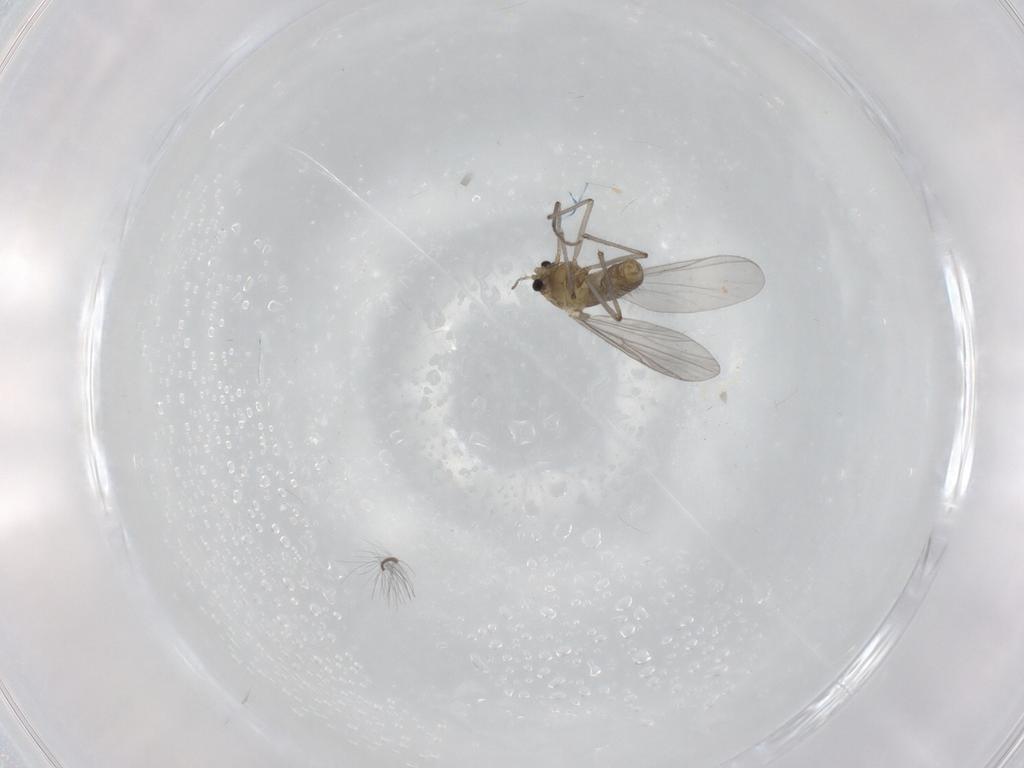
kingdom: Animalia
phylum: Arthropoda
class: Insecta
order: Diptera
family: Chironomidae
